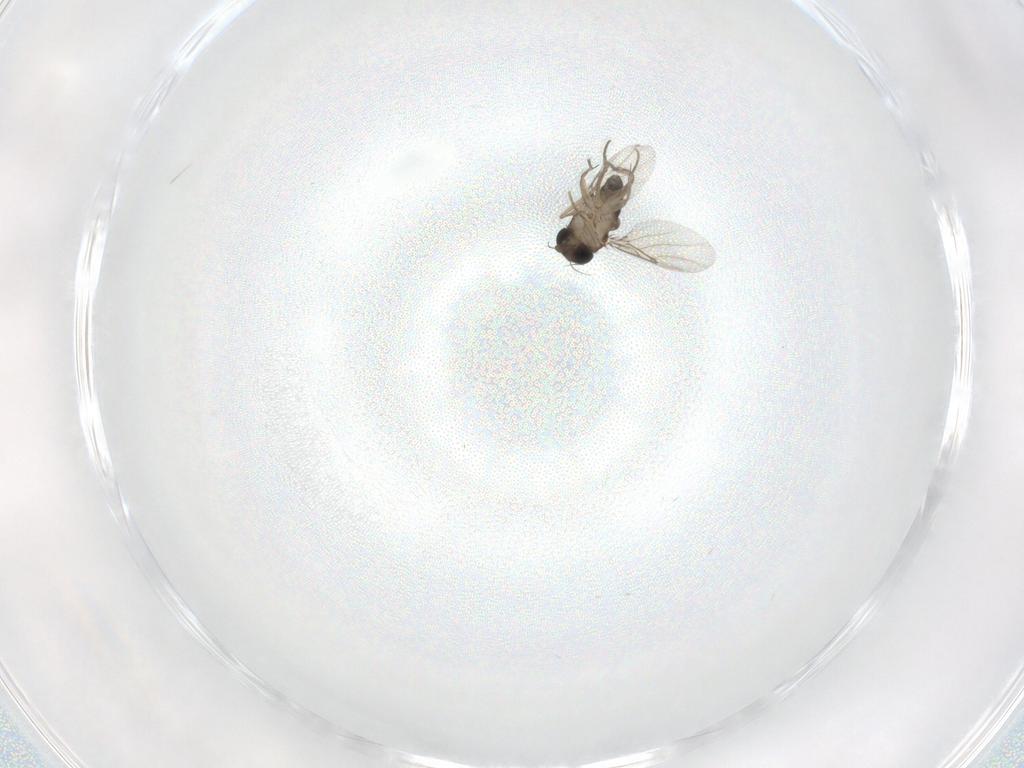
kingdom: Animalia
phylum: Arthropoda
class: Insecta
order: Diptera
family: Phoridae
